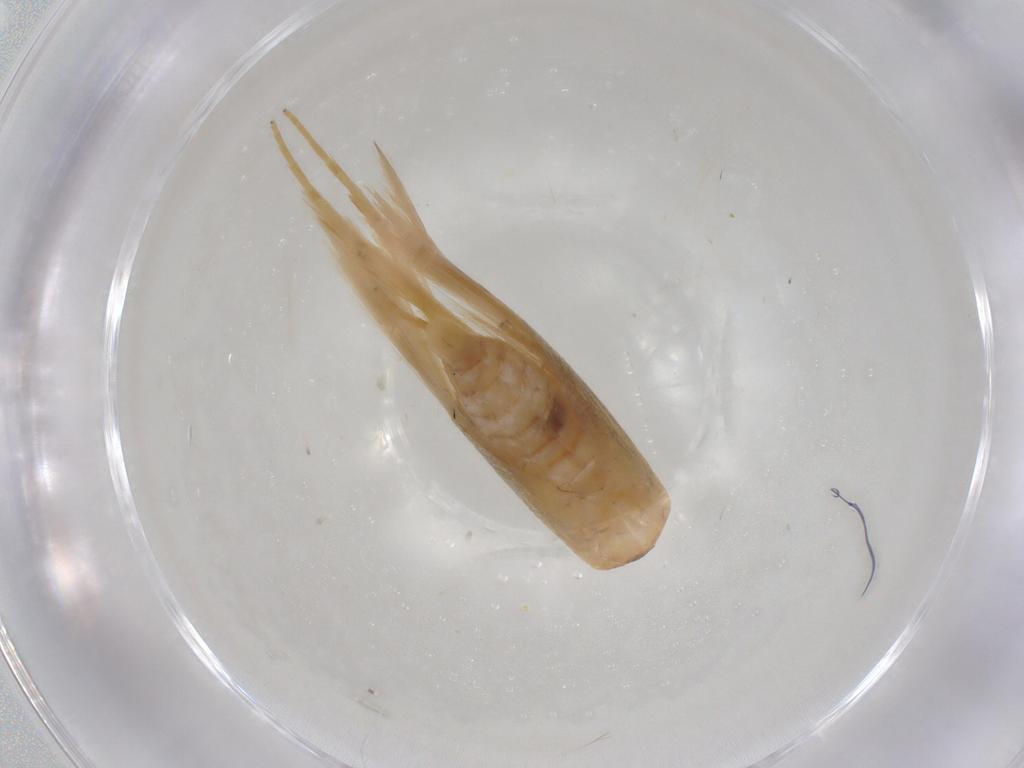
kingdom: Animalia
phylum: Arthropoda
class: Insecta
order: Lepidoptera
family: Erebidae
